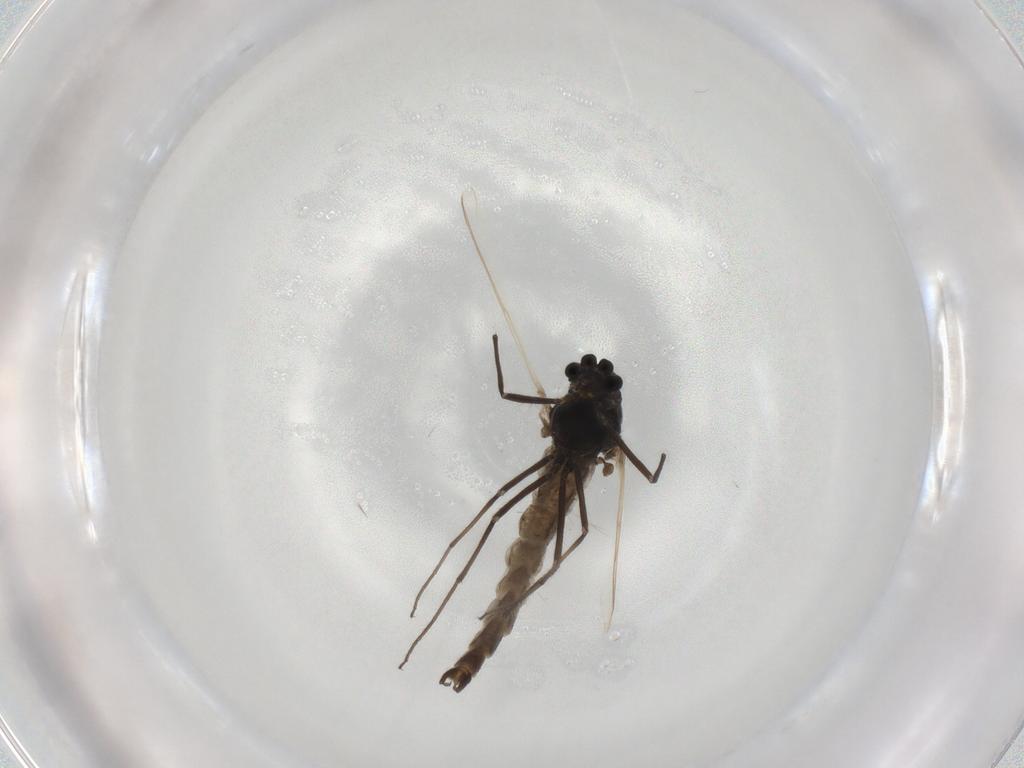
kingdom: Animalia
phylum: Arthropoda
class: Insecta
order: Diptera
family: Chironomidae
